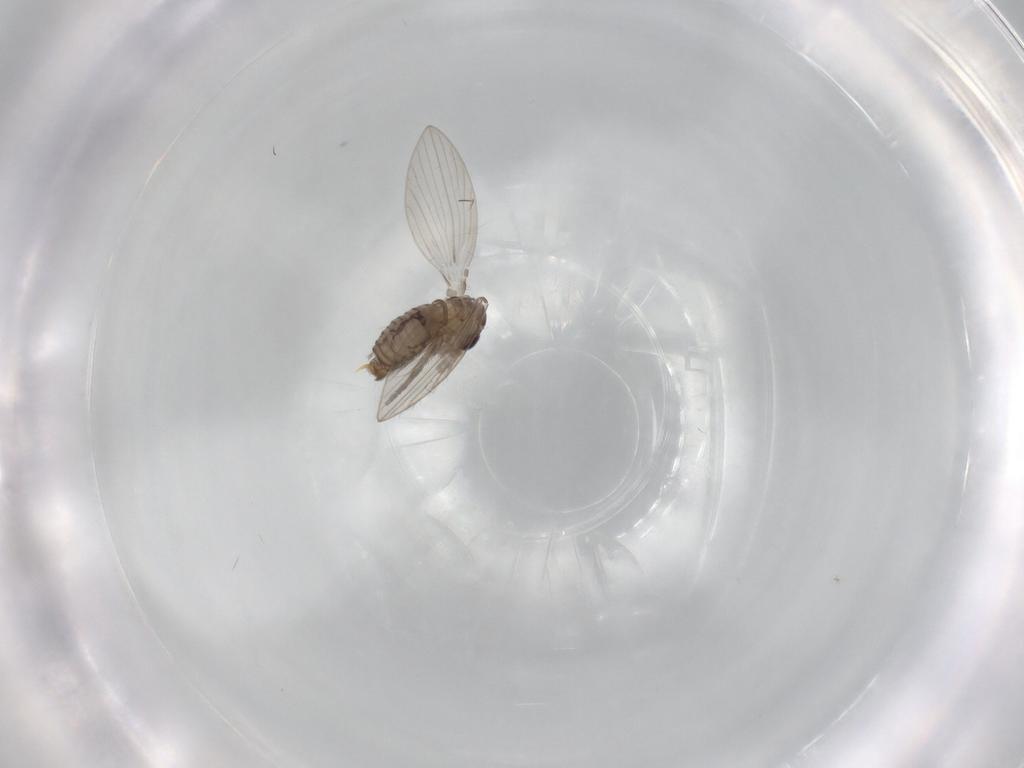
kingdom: Animalia
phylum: Arthropoda
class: Insecta
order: Diptera
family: Psychodidae
